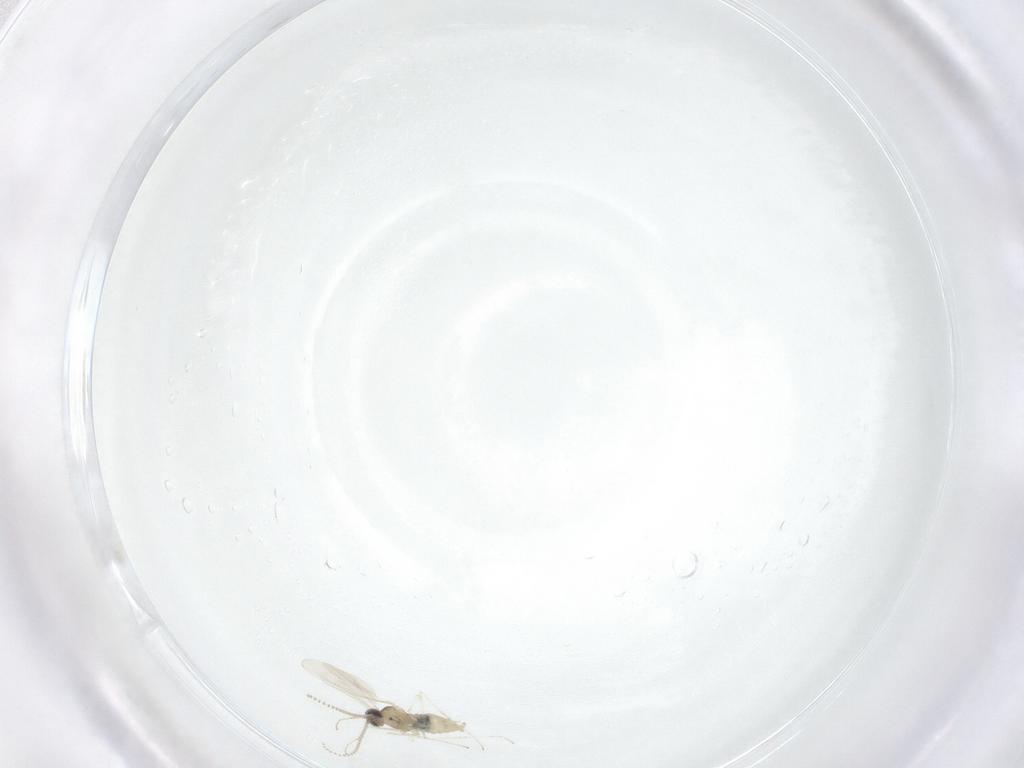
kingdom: Animalia
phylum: Arthropoda
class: Insecta
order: Diptera
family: Cecidomyiidae
